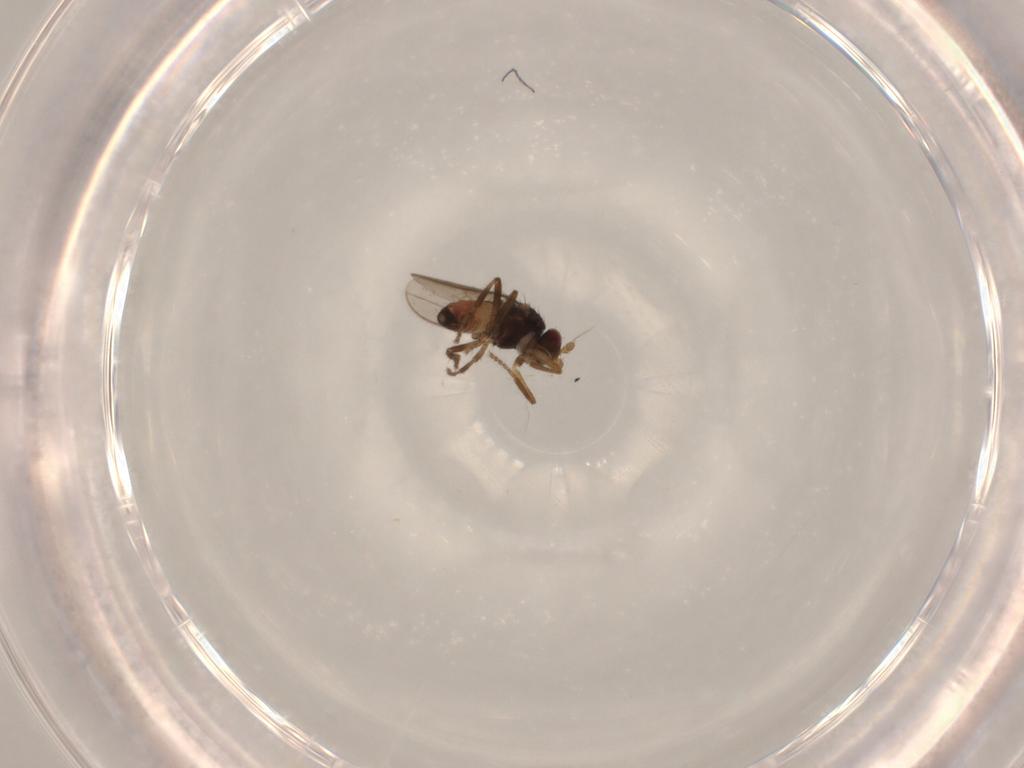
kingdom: Animalia
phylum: Arthropoda
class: Insecta
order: Diptera
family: Sphaeroceridae
